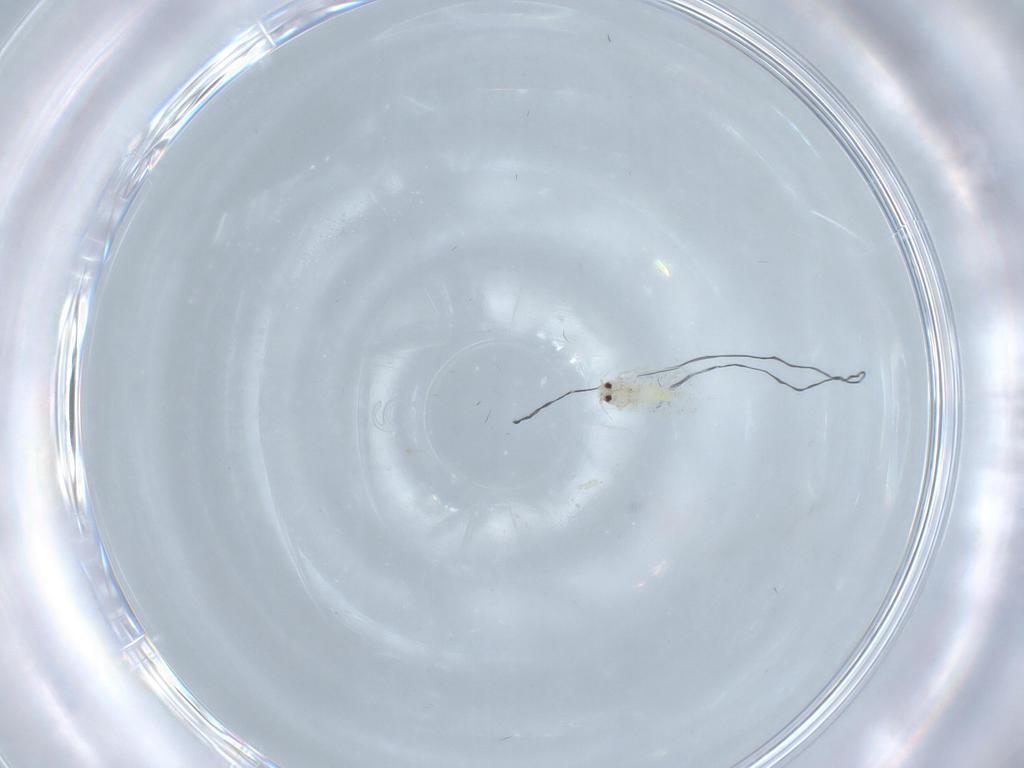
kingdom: Animalia
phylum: Arthropoda
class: Insecta
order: Hemiptera
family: Aleyrodidae
